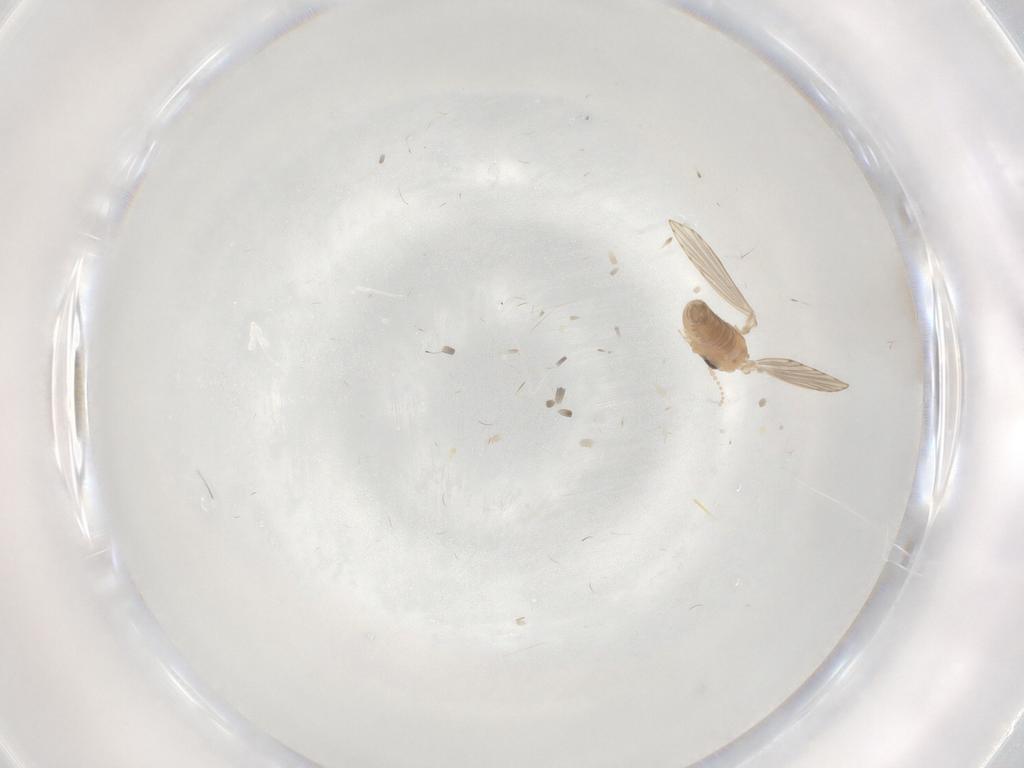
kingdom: Animalia
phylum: Arthropoda
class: Insecta
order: Diptera
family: Psychodidae
